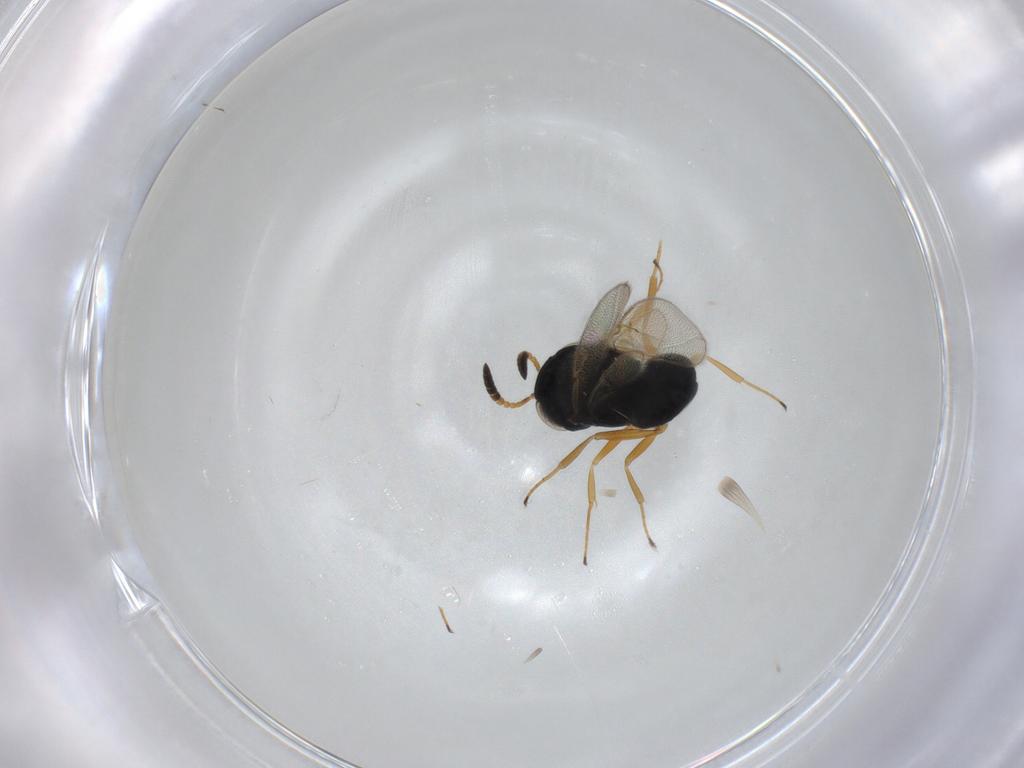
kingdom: Animalia
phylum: Arthropoda
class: Insecta
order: Hymenoptera
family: Scelionidae
